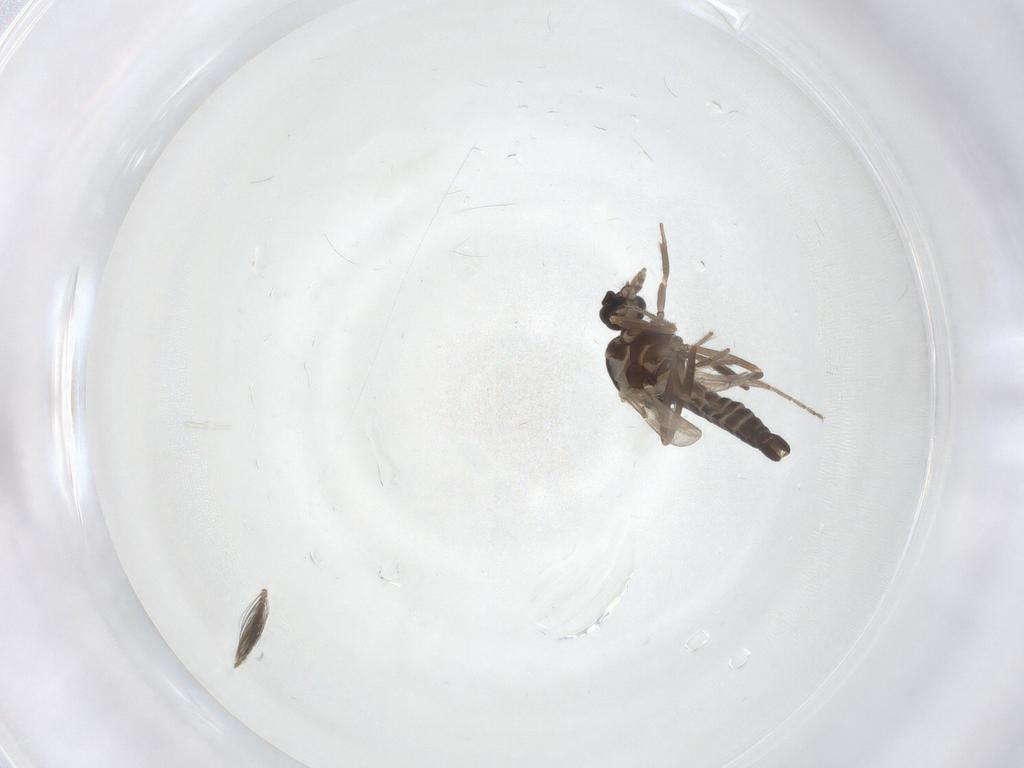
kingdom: Animalia
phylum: Arthropoda
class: Insecta
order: Diptera
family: Ceratopogonidae
